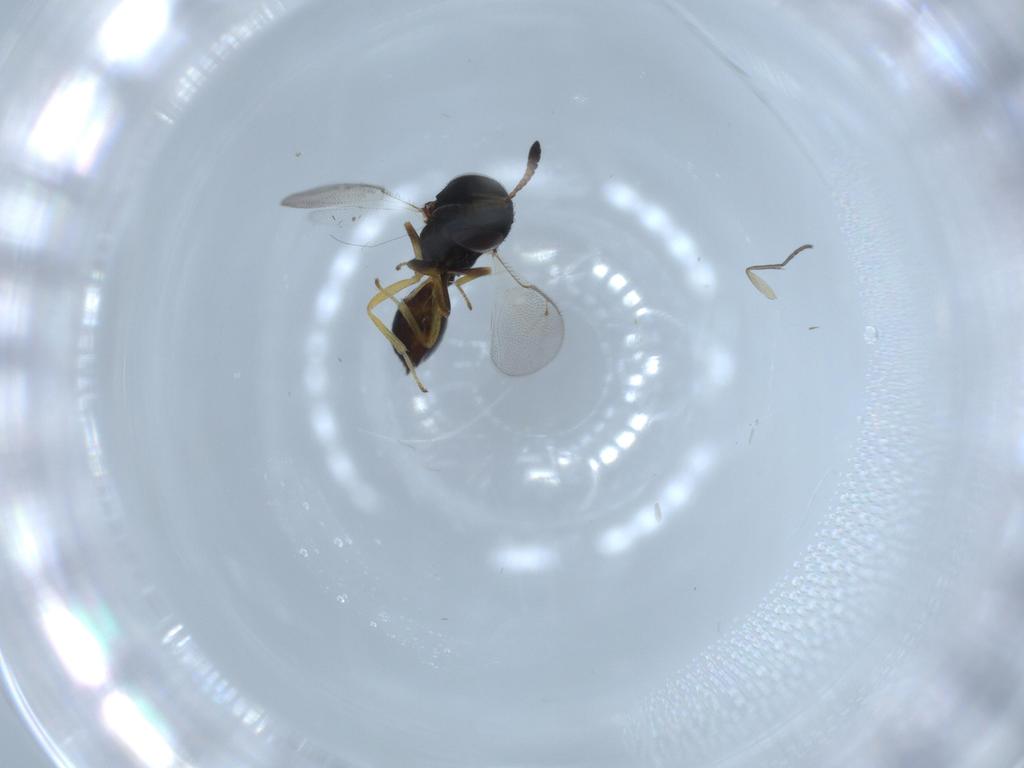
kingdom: Animalia
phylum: Arthropoda
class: Insecta
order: Hymenoptera
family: Pteromalidae
